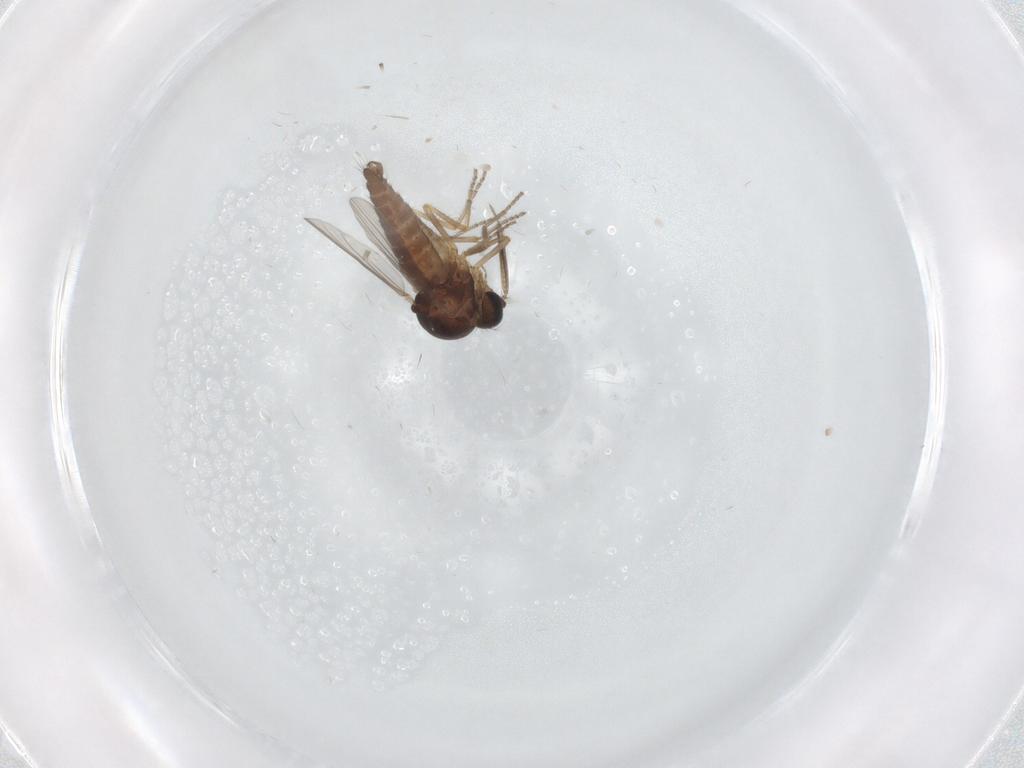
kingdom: Animalia
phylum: Arthropoda
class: Insecta
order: Diptera
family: Ceratopogonidae
